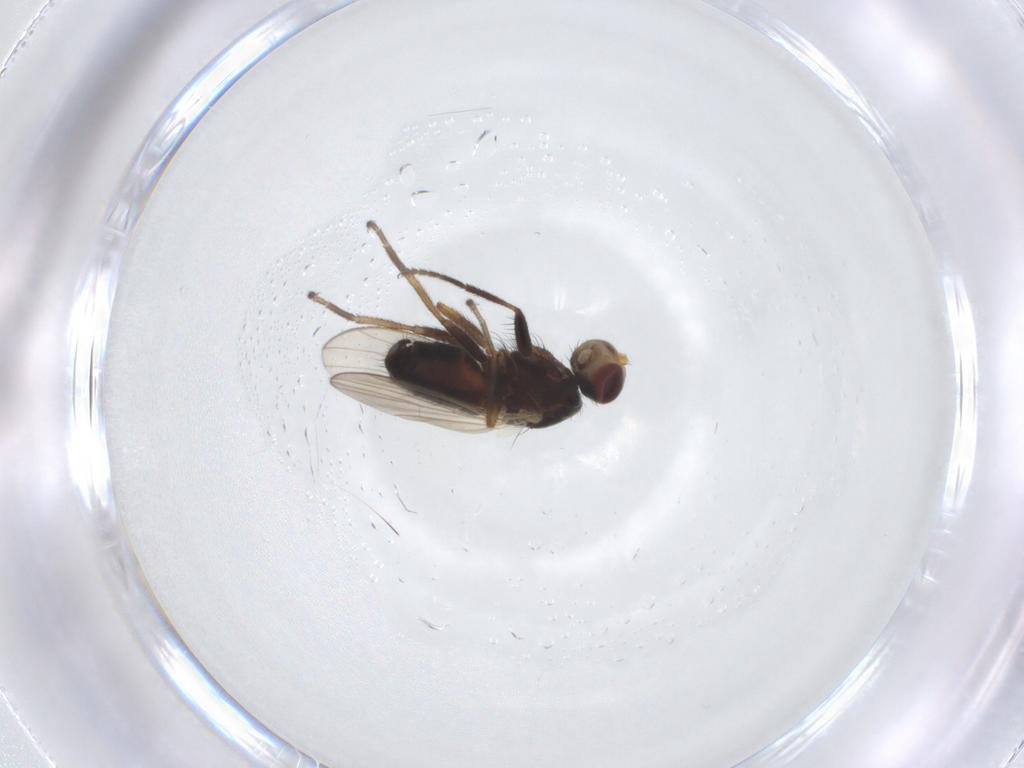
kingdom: Animalia
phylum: Arthropoda
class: Insecta
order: Diptera
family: Heleomyzidae
